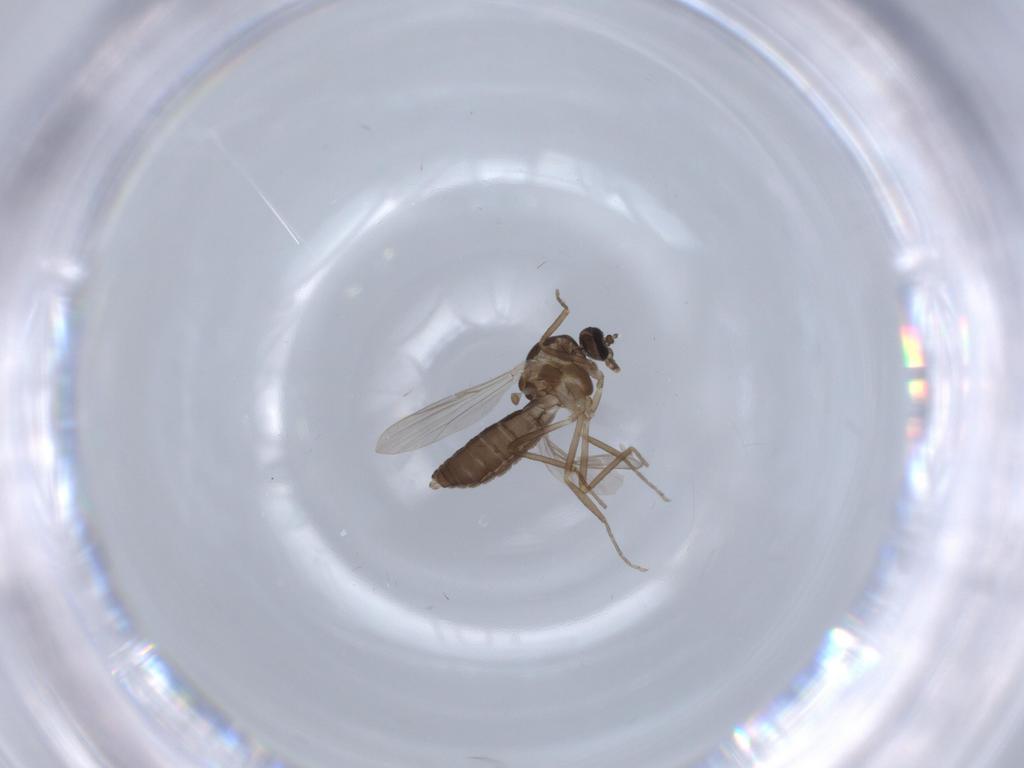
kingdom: Animalia
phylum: Arthropoda
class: Insecta
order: Diptera
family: Ceratopogonidae
